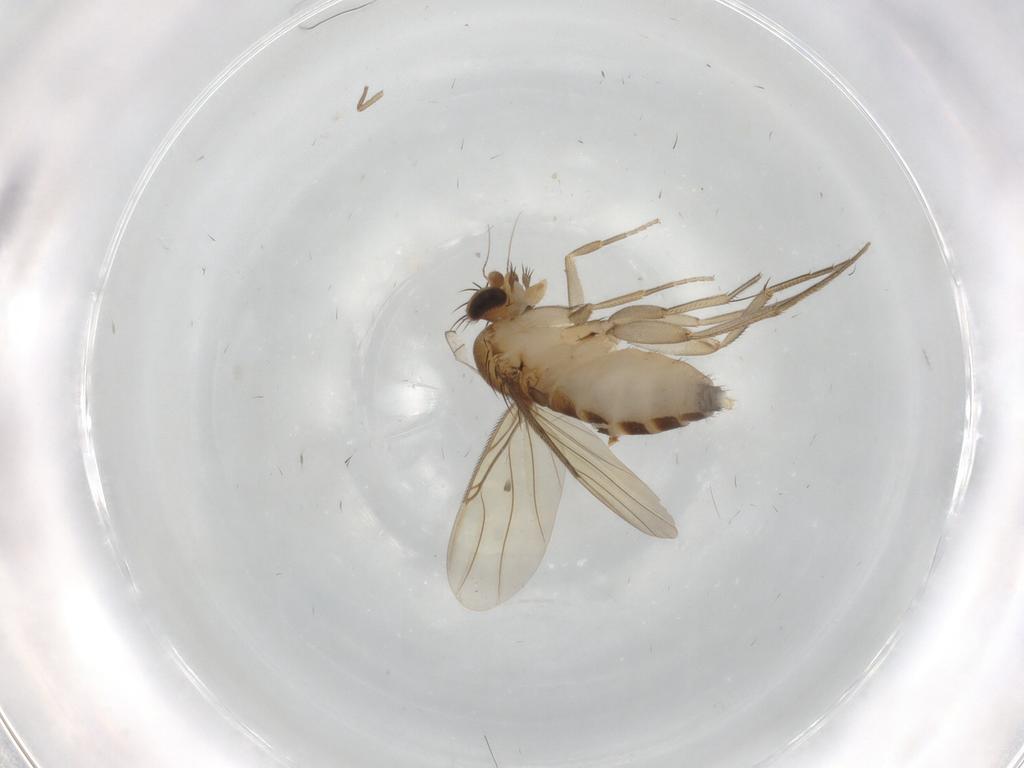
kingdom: Animalia
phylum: Arthropoda
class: Insecta
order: Diptera
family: Phoridae
